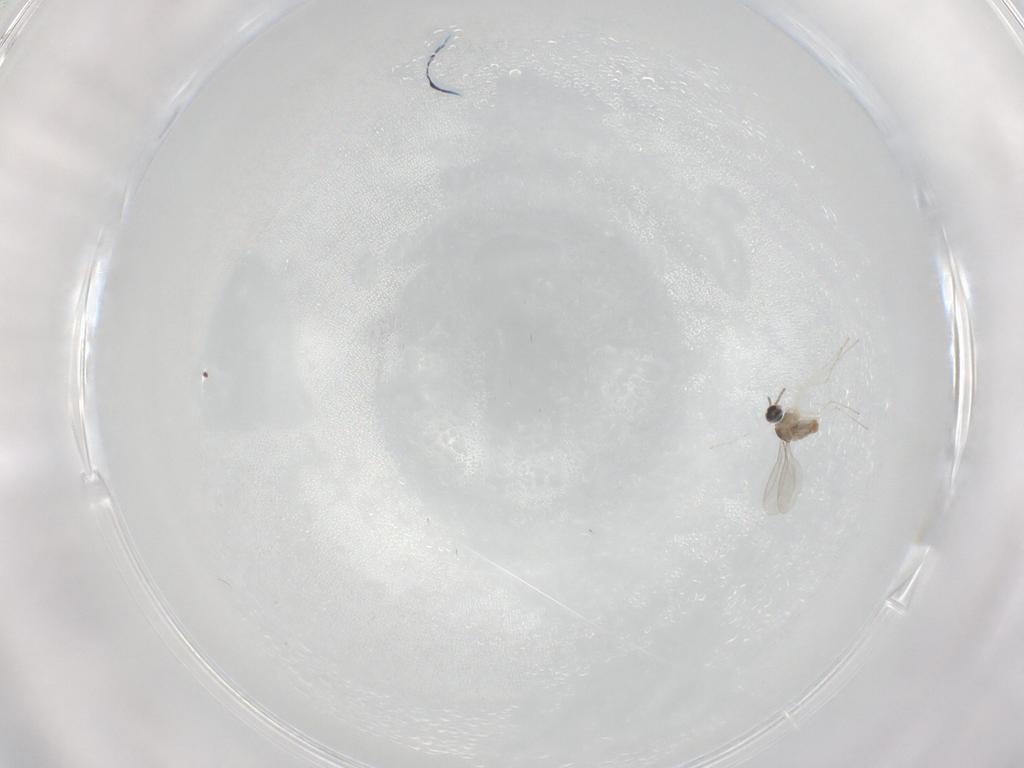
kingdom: Animalia
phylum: Arthropoda
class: Insecta
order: Diptera
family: Cecidomyiidae
